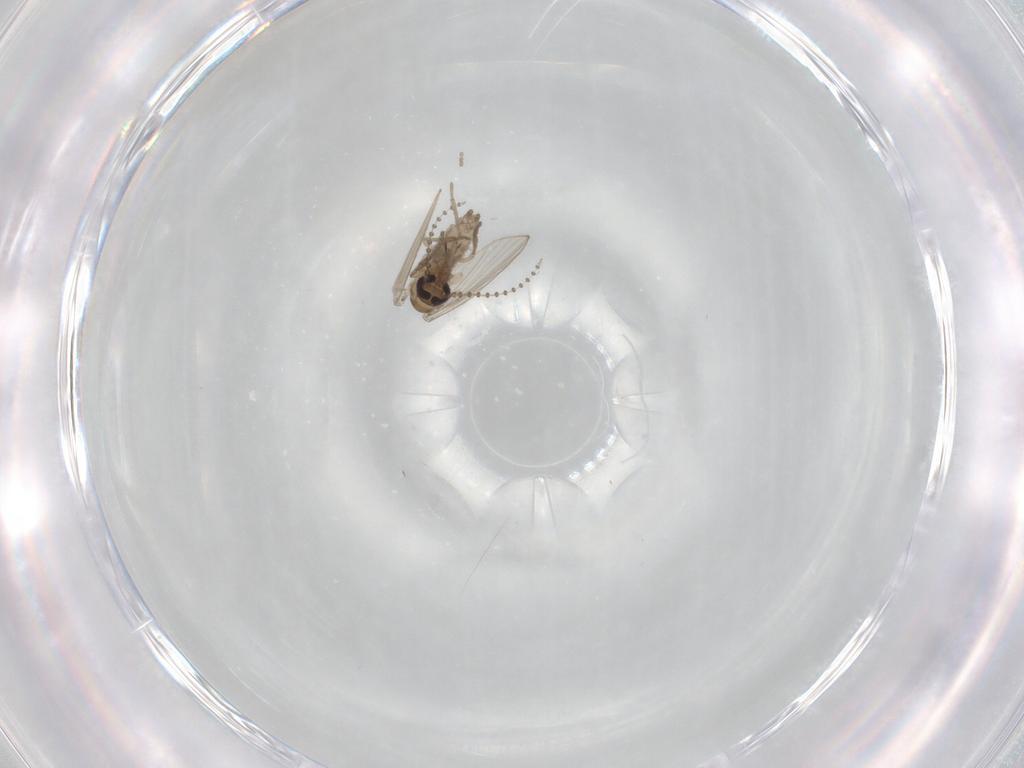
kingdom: Animalia
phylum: Arthropoda
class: Insecta
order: Diptera
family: Psychodidae
